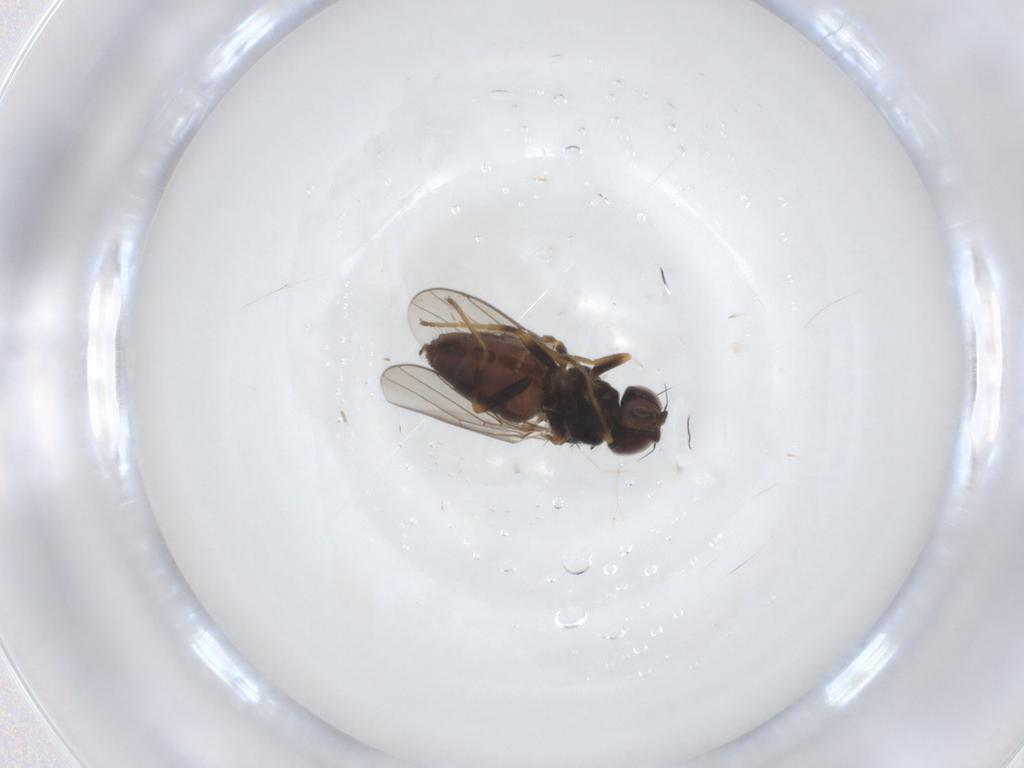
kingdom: Animalia
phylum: Arthropoda
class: Insecta
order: Diptera
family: Chloropidae
